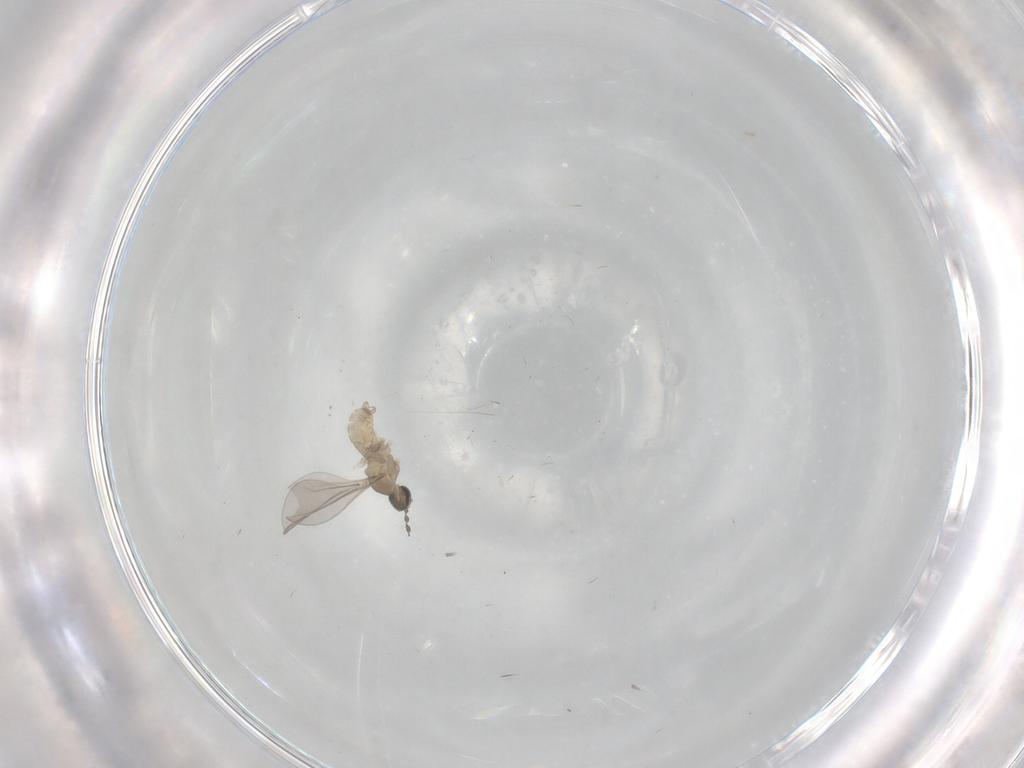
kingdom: Animalia
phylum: Arthropoda
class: Insecta
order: Diptera
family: Cecidomyiidae
